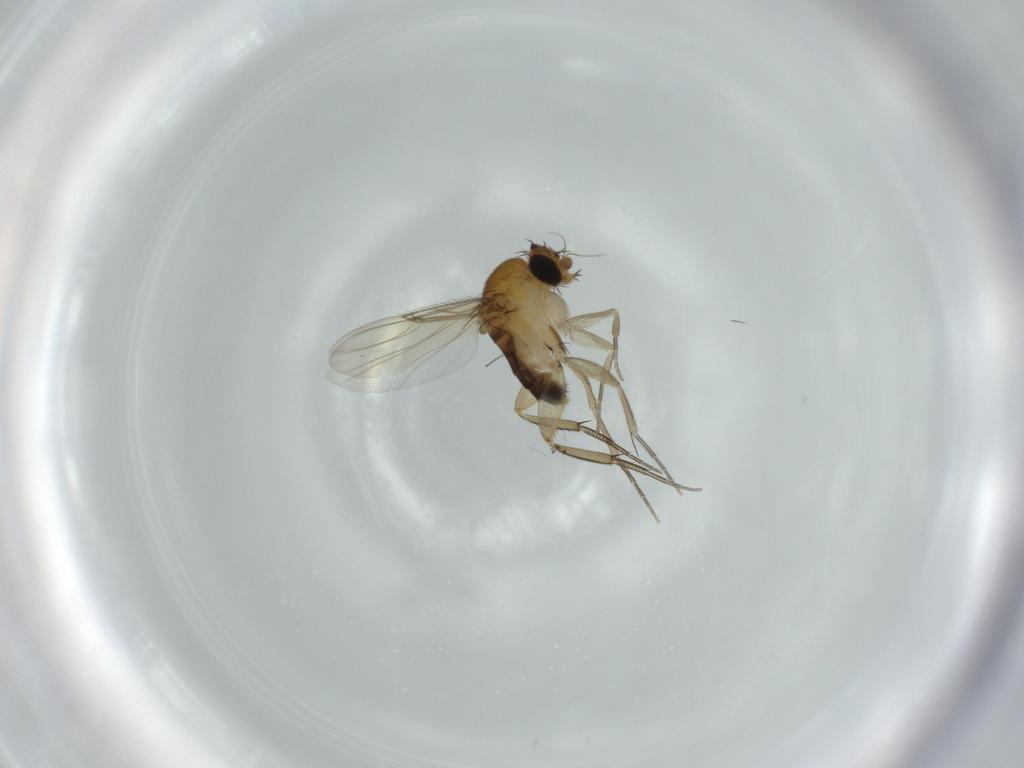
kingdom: Animalia
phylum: Arthropoda
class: Insecta
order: Diptera
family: Phoridae
